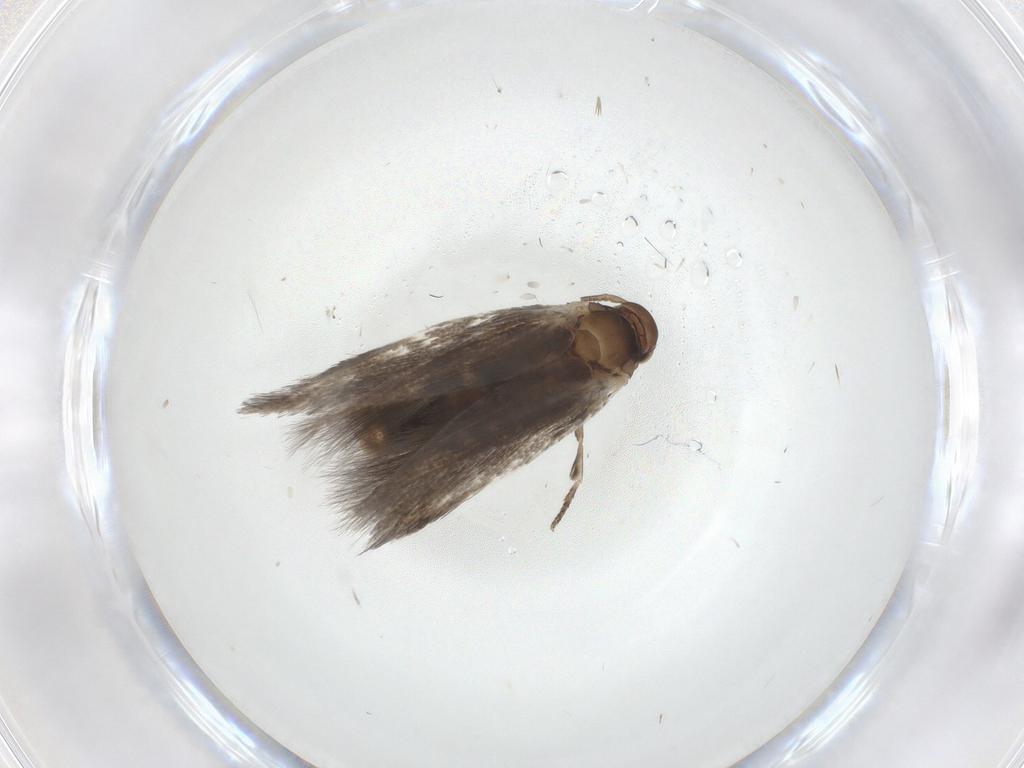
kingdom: Animalia
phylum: Arthropoda
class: Insecta
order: Lepidoptera
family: Elachistidae
